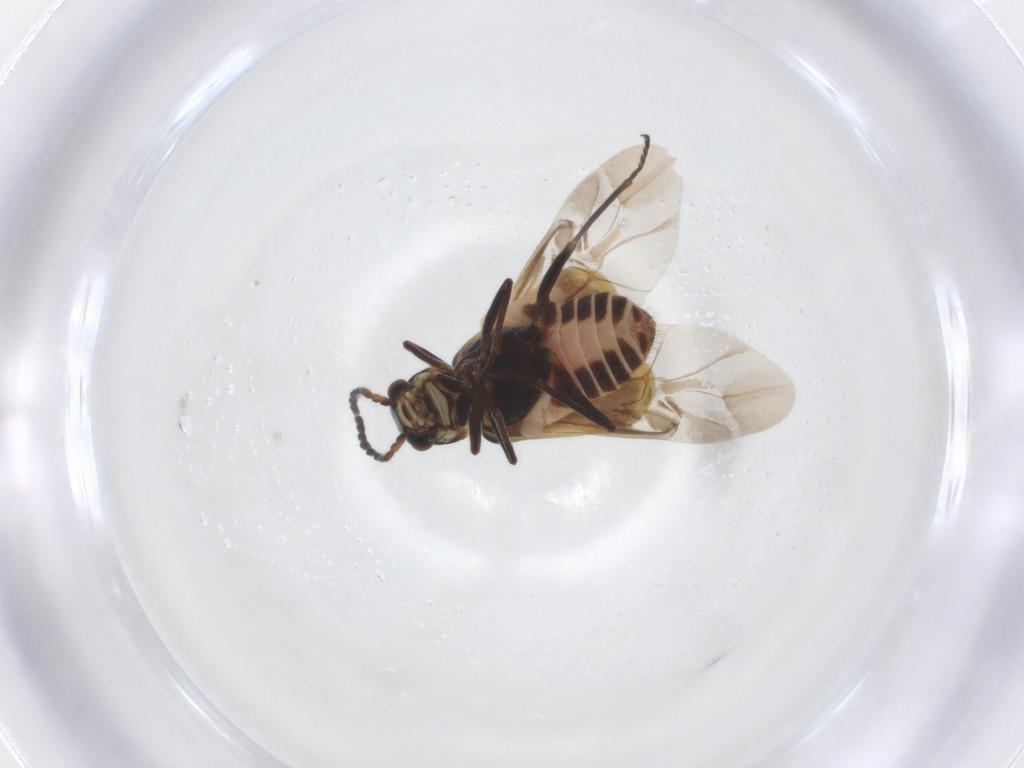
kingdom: Animalia
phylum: Arthropoda
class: Insecta
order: Coleoptera
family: Melyridae
